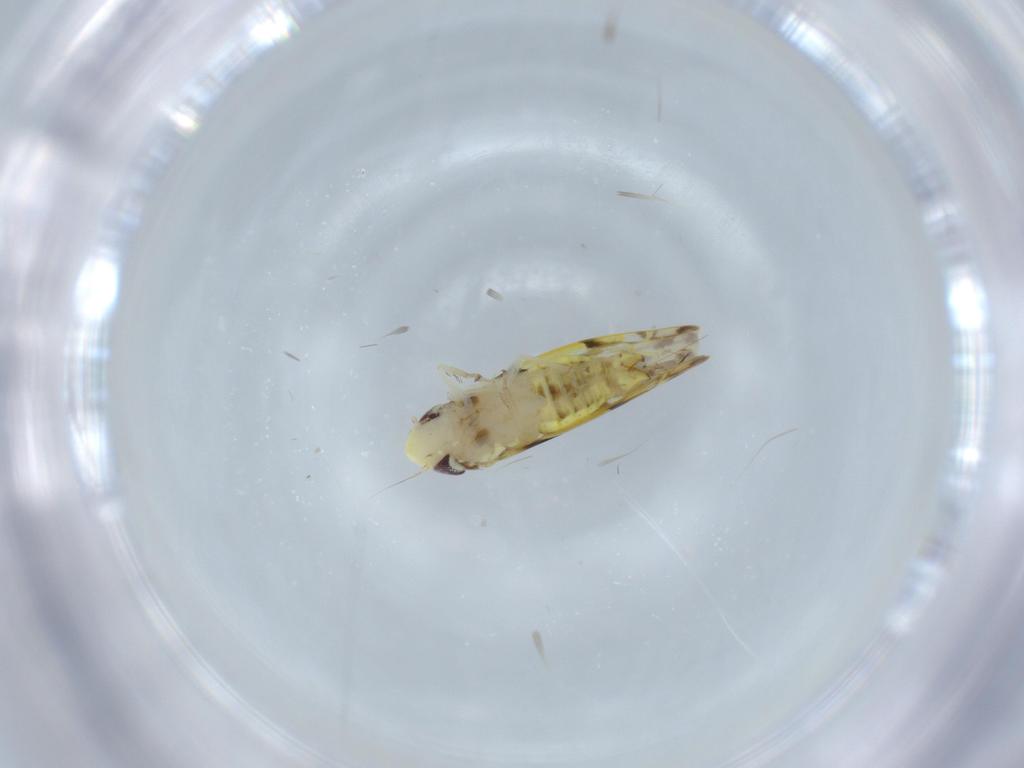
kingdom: Animalia
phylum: Arthropoda
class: Insecta
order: Hemiptera
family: Cicadellidae
